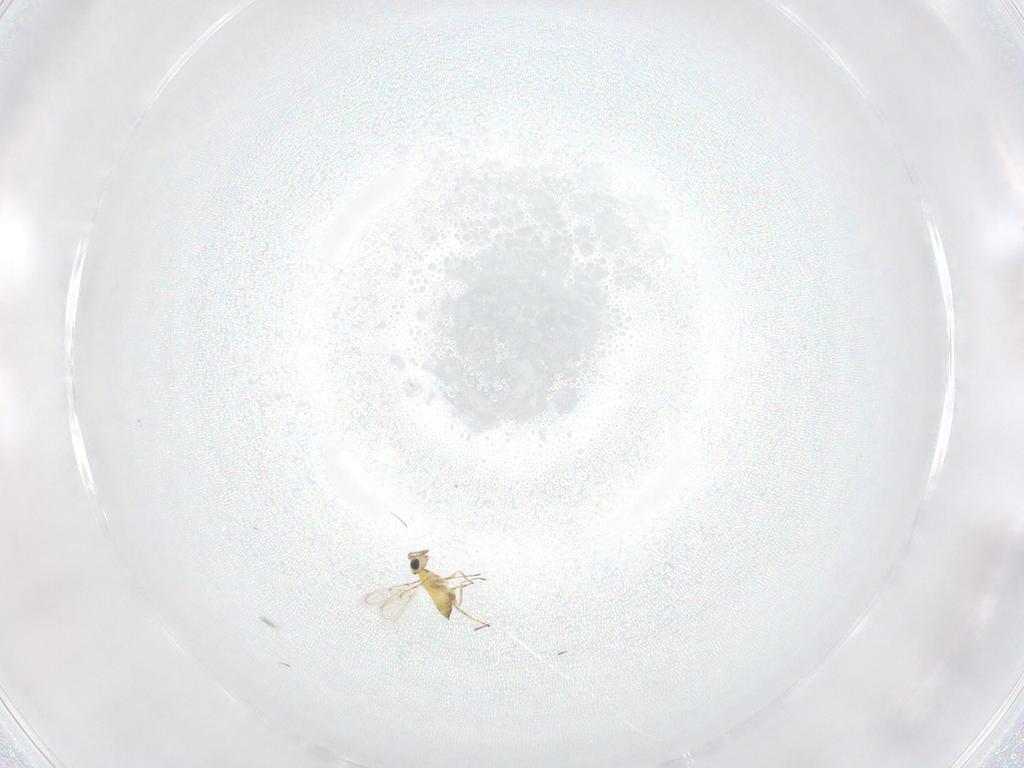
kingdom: Animalia
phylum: Arthropoda
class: Insecta
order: Hymenoptera
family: Trichogrammatidae
